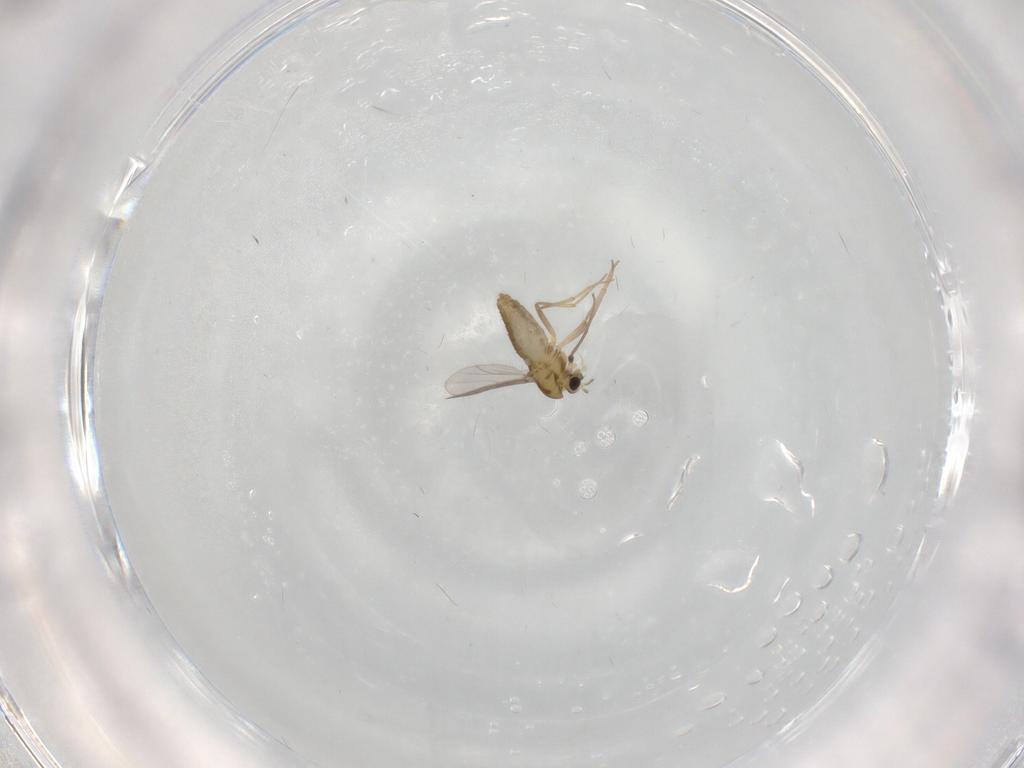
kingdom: Animalia
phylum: Arthropoda
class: Insecta
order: Diptera
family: Chironomidae
